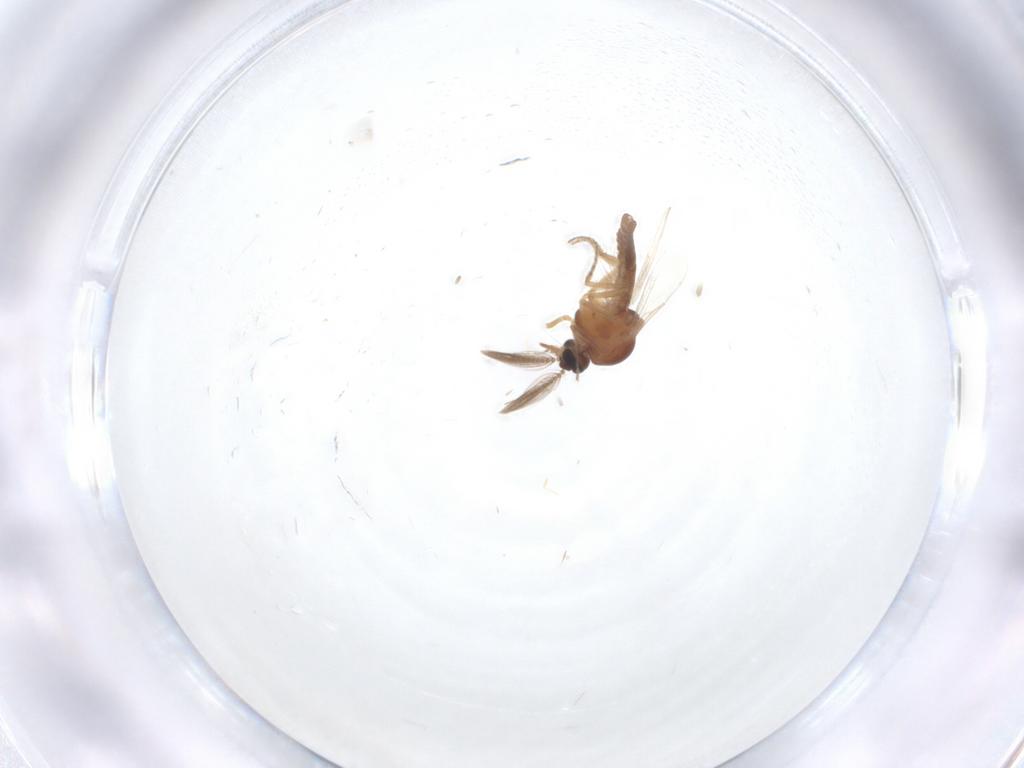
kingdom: Animalia
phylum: Arthropoda
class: Insecta
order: Diptera
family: Ceratopogonidae
